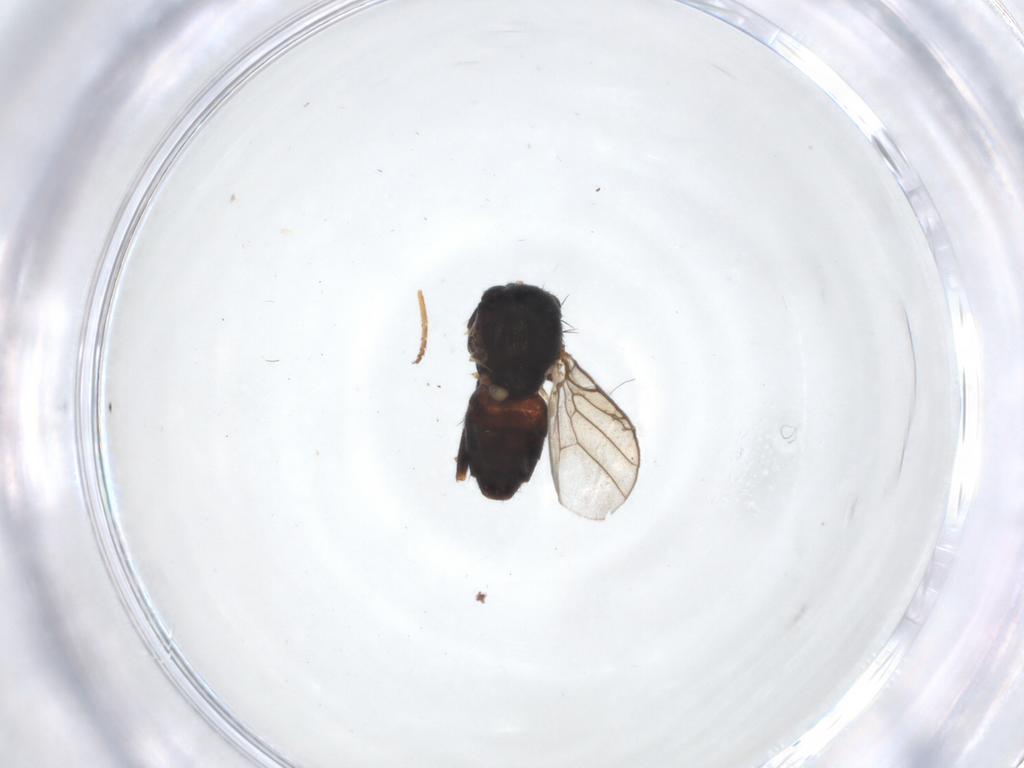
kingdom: Animalia
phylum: Arthropoda
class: Insecta
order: Diptera
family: Chloropidae
